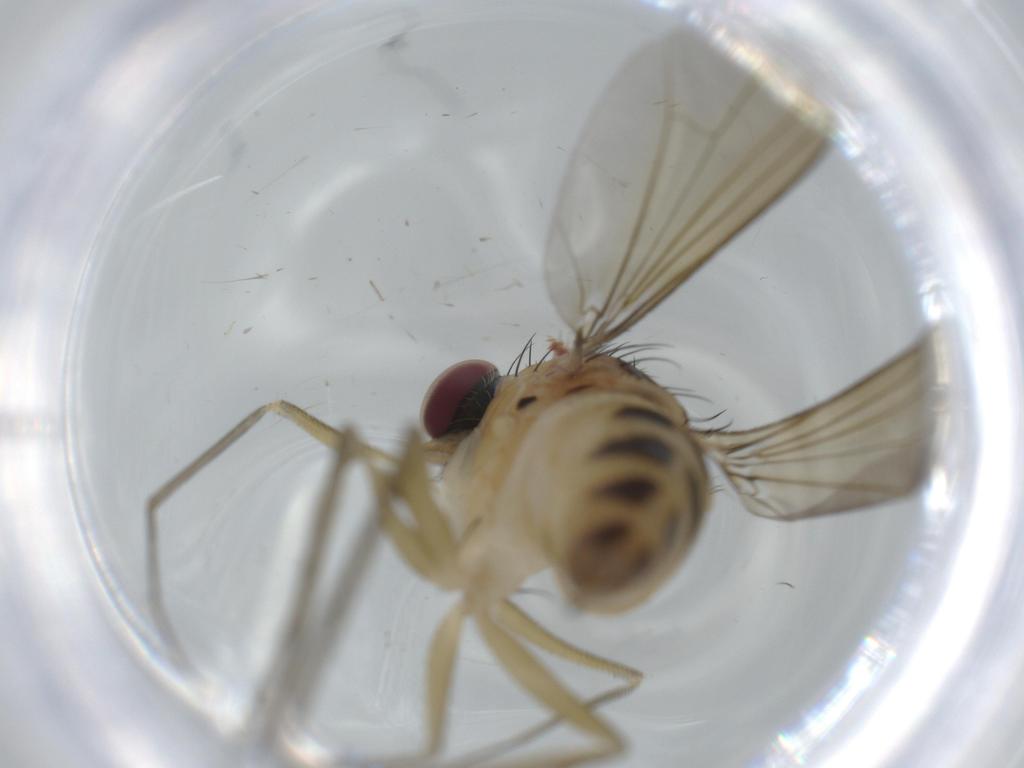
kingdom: Animalia
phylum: Arthropoda
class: Insecta
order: Diptera
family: Dolichopodidae
